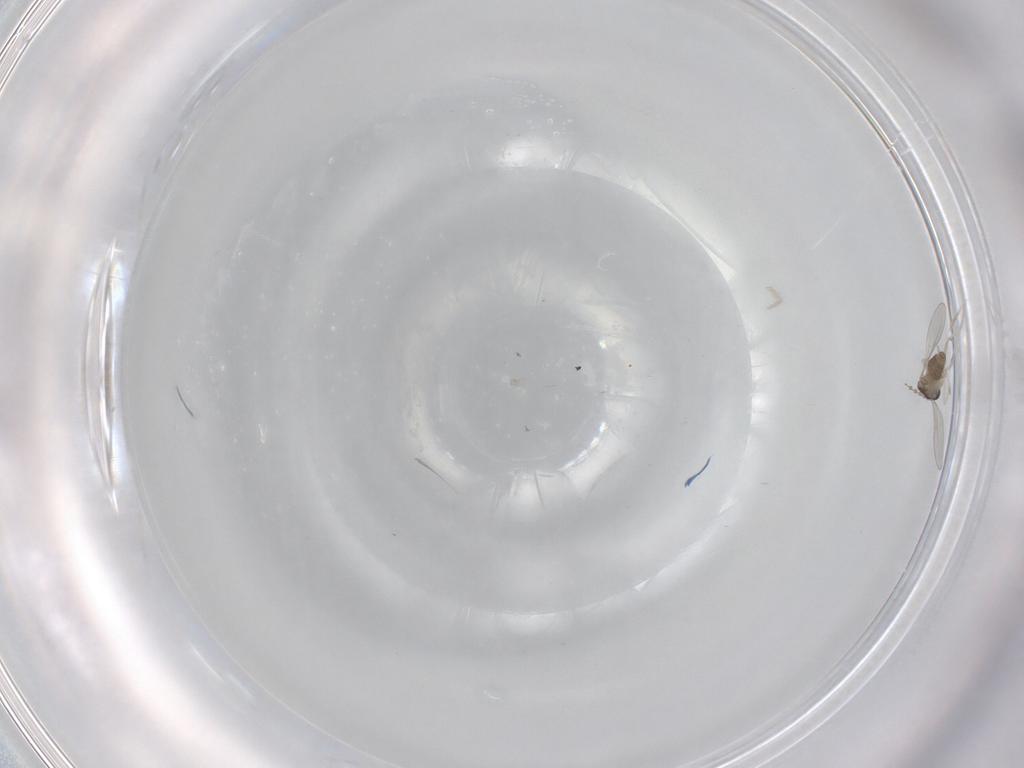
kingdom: Animalia
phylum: Arthropoda
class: Insecta
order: Diptera
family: Cecidomyiidae
